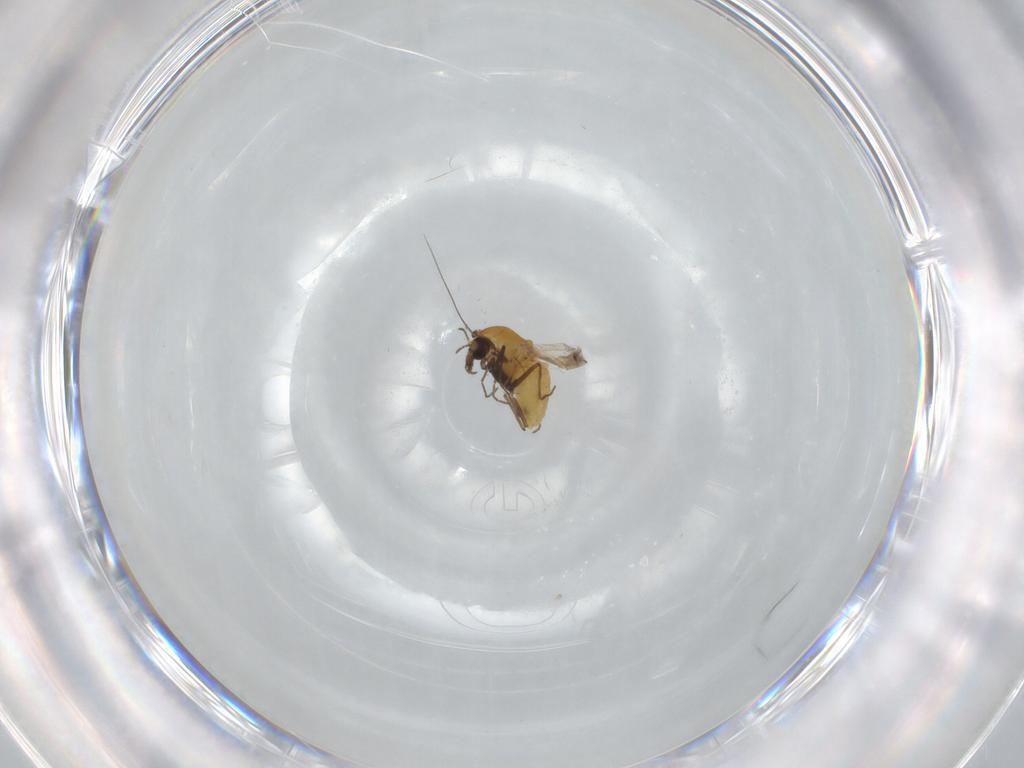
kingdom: Animalia
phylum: Arthropoda
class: Insecta
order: Diptera
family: Chironomidae
